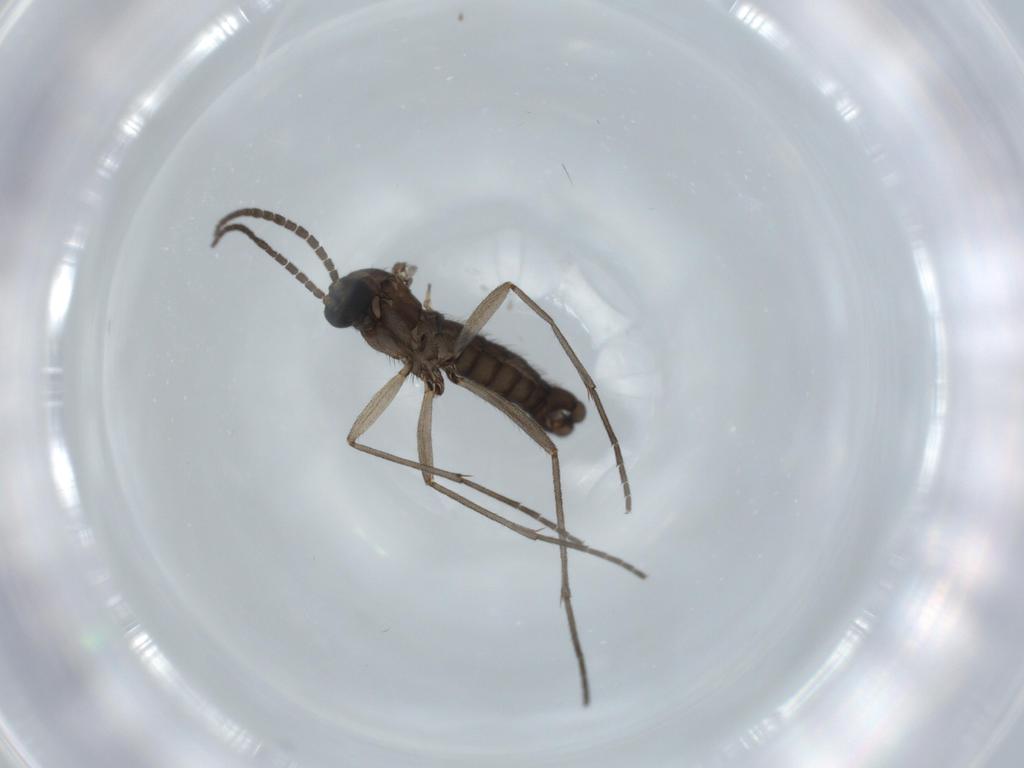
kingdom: Animalia
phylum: Arthropoda
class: Insecta
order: Diptera
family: Sciaridae
